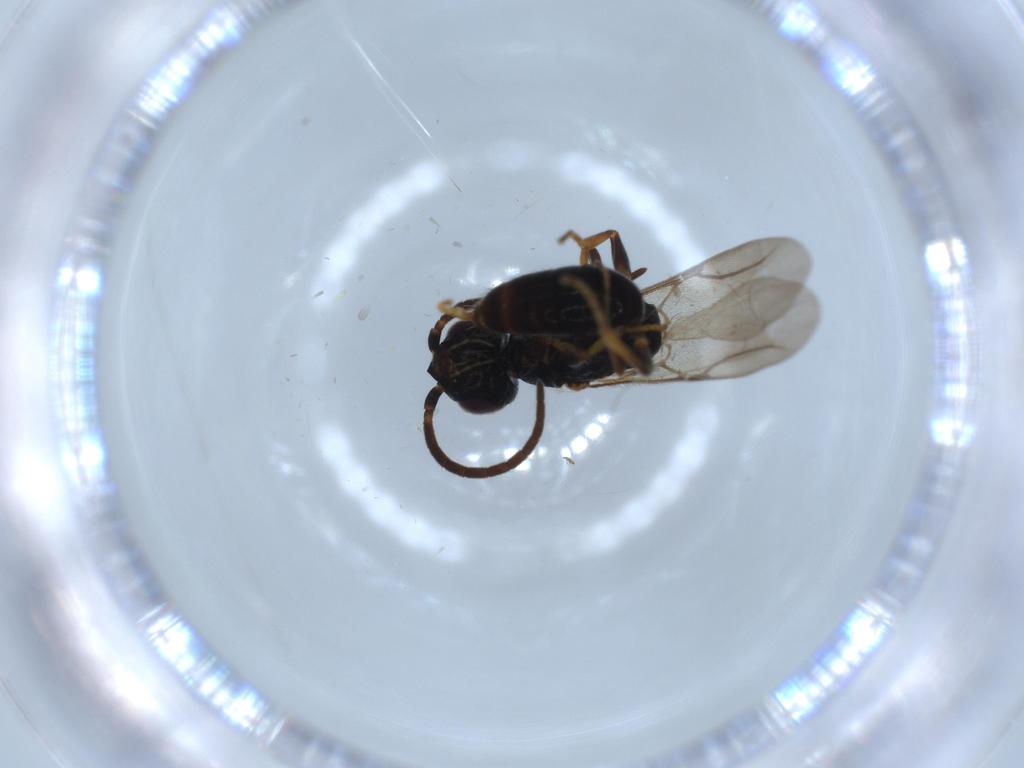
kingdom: Animalia
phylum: Arthropoda
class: Insecta
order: Hymenoptera
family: Bethylidae
